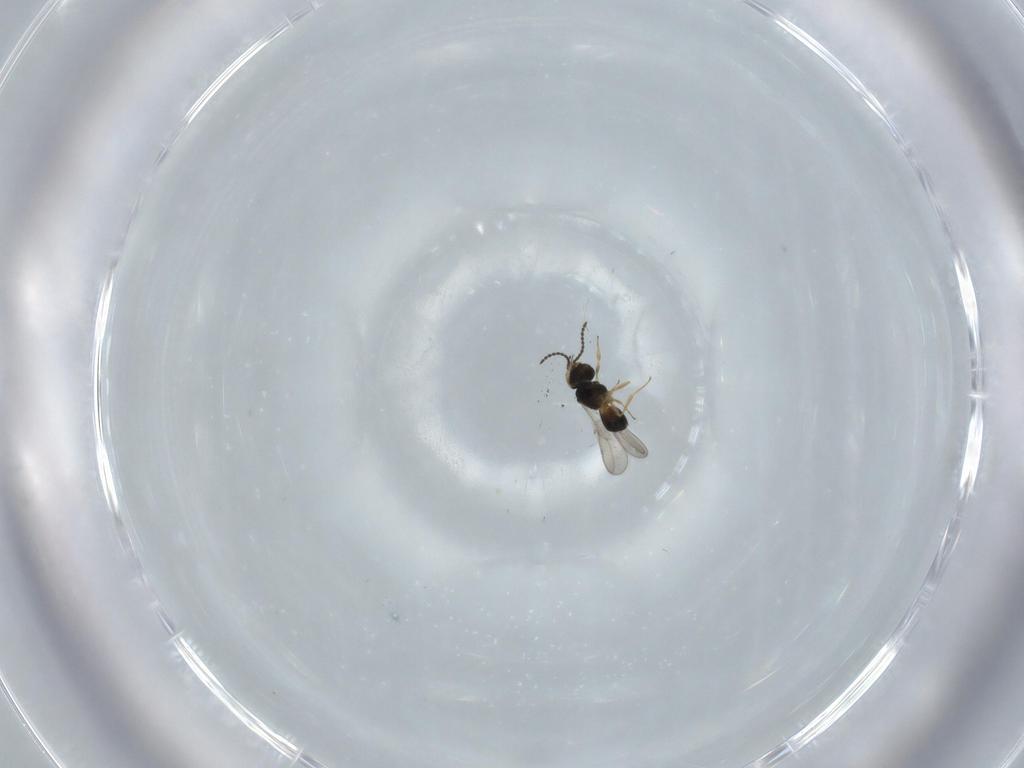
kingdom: Animalia
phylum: Arthropoda
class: Insecta
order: Hymenoptera
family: Scelionidae
